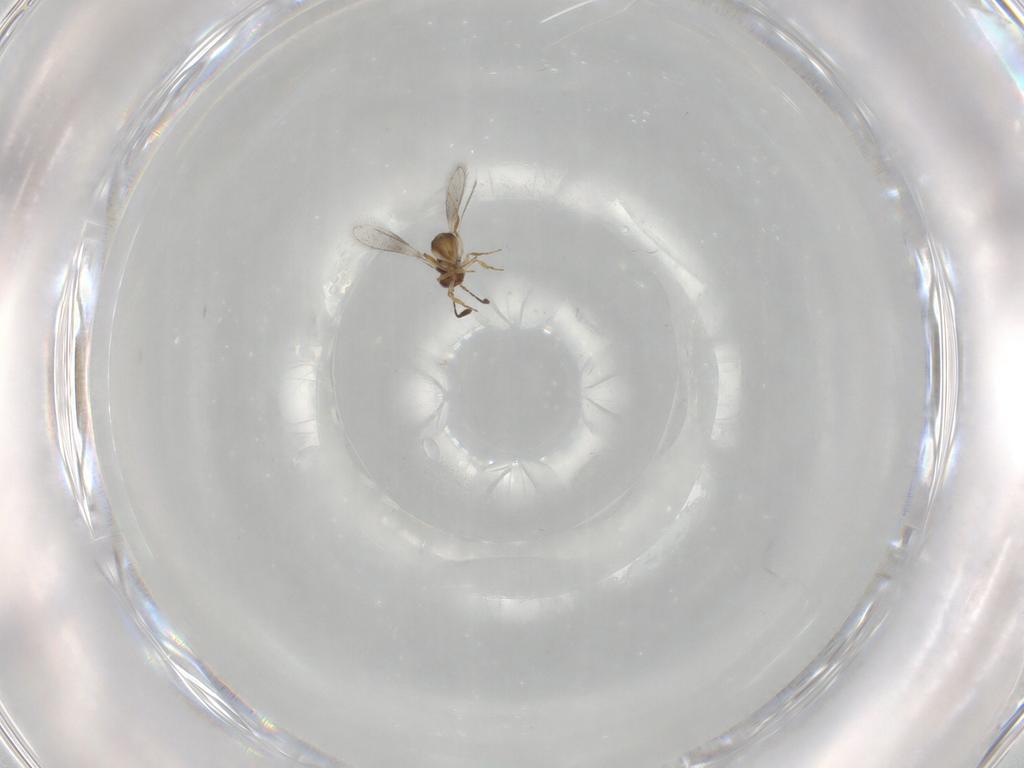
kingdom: Animalia
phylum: Arthropoda
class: Insecta
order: Hymenoptera
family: Mymaridae
